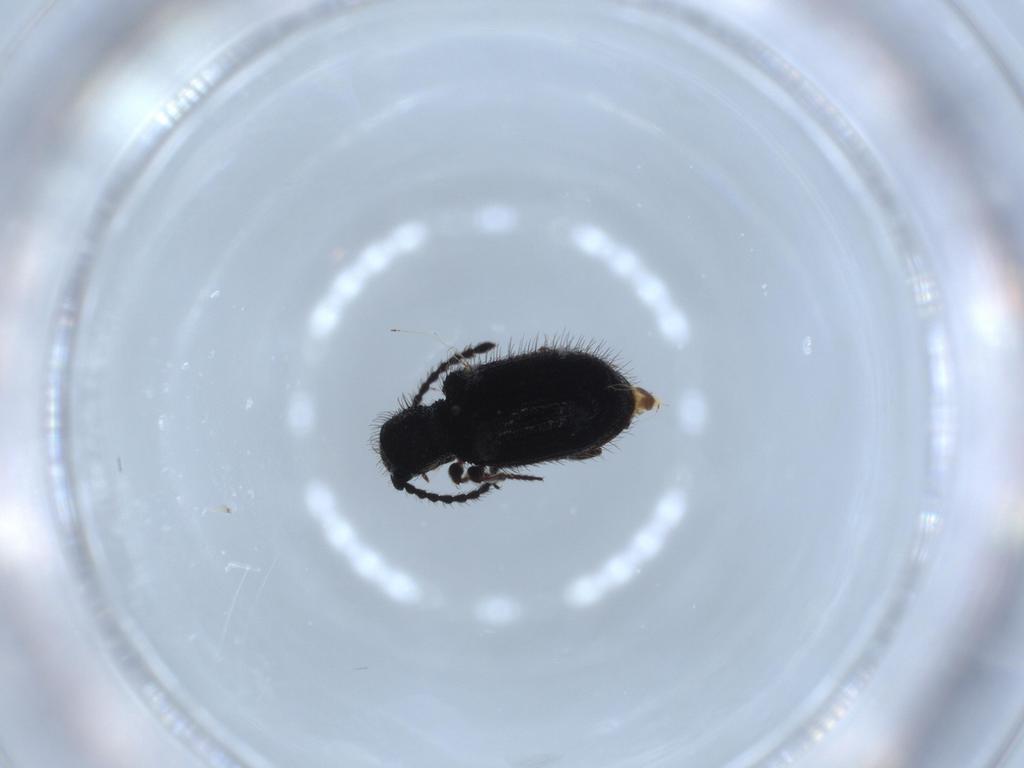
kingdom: Animalia
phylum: Arthropoda
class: Insecta
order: Coleoptera
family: Ptinidae
